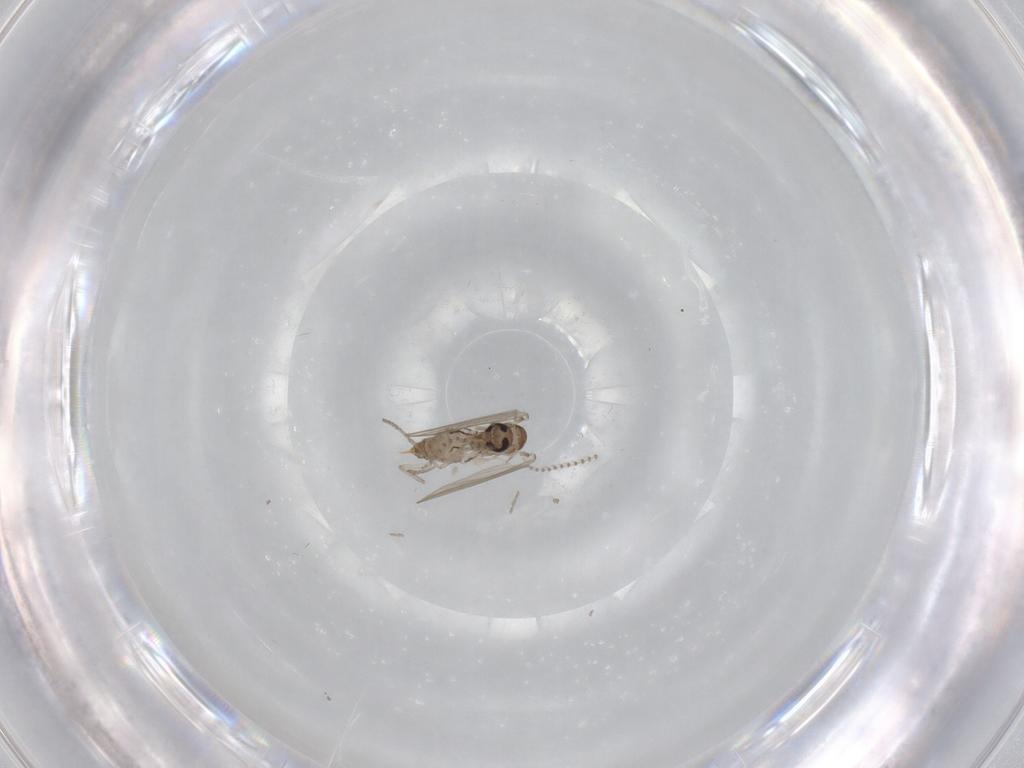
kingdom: Animalia
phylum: Arthropoda
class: Insecta
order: Diptera
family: Psychodidae
